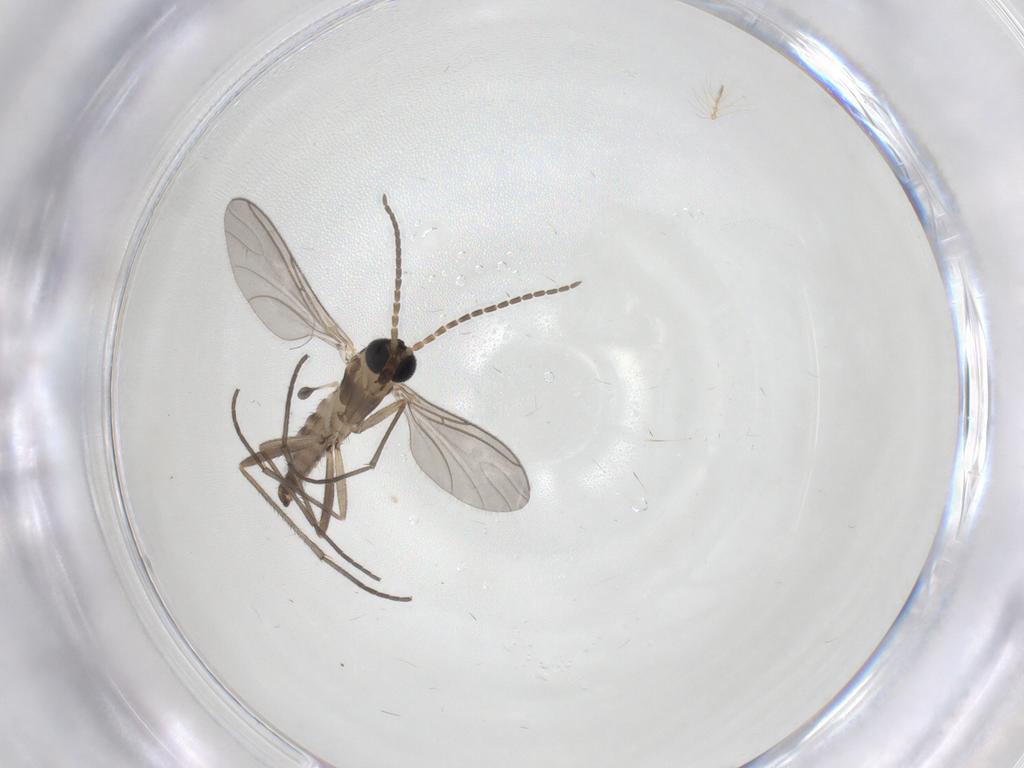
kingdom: Animalia
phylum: Arthropoda
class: Insecta
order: Diptera
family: Sciaridae
